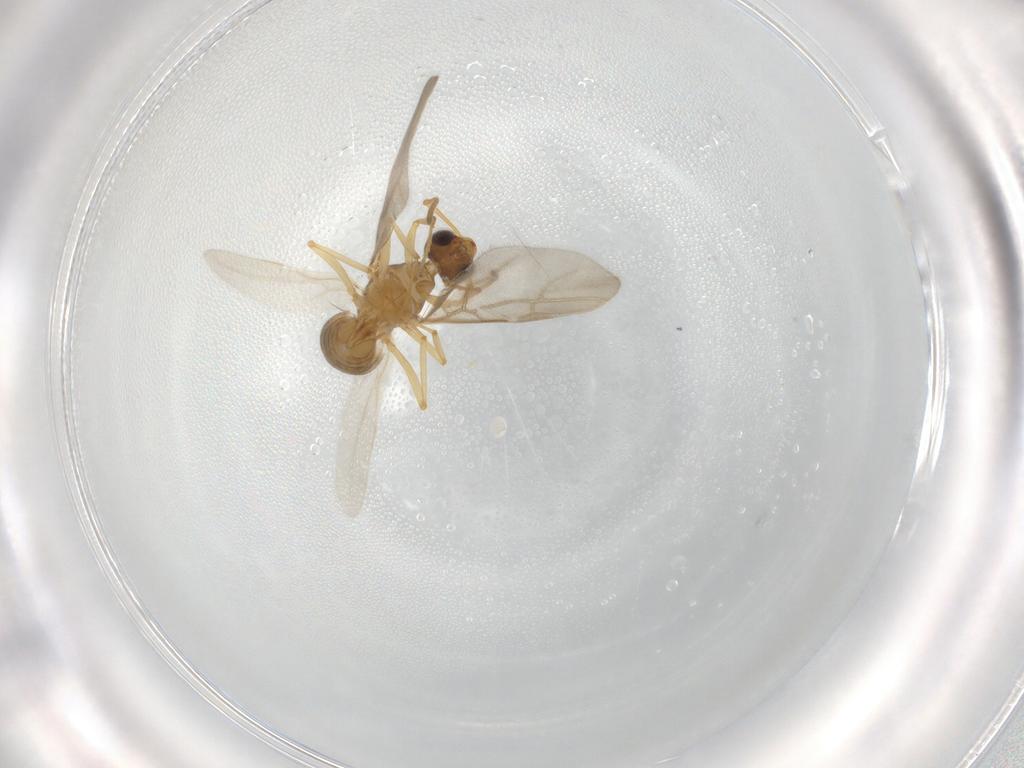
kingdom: Animalia
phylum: Arthropoda
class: Insecta
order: Hymenoptera
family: Formicidae
